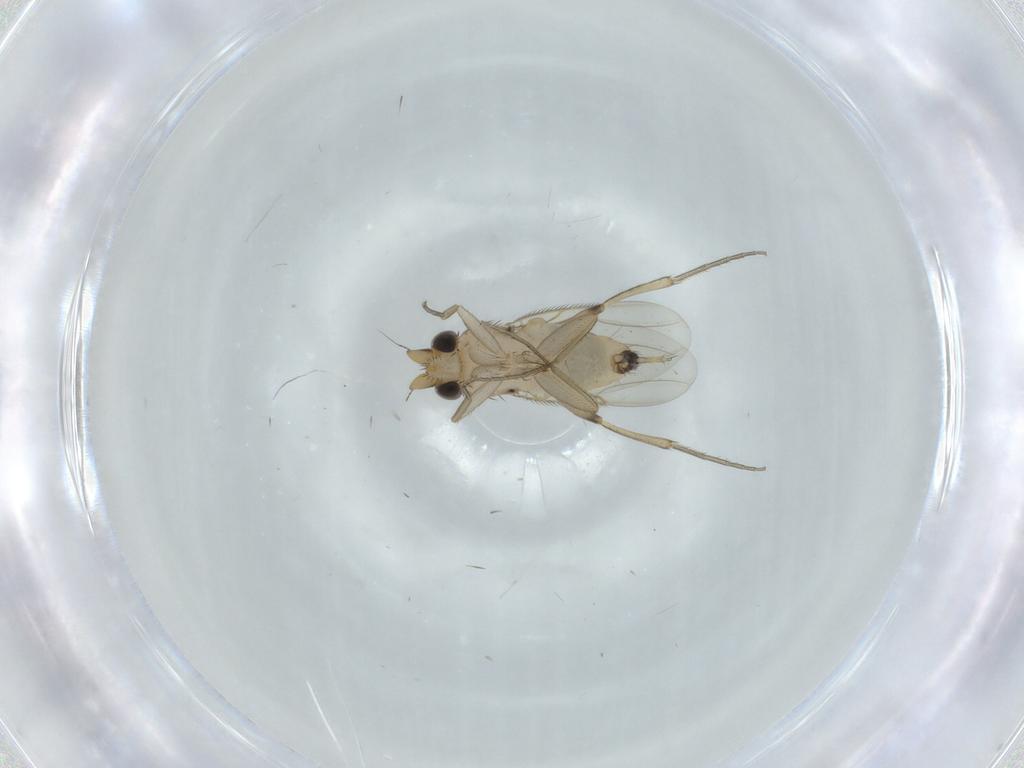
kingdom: Animalia
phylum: Arthropoda
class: Insecta
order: Diptera
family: Phoridae
